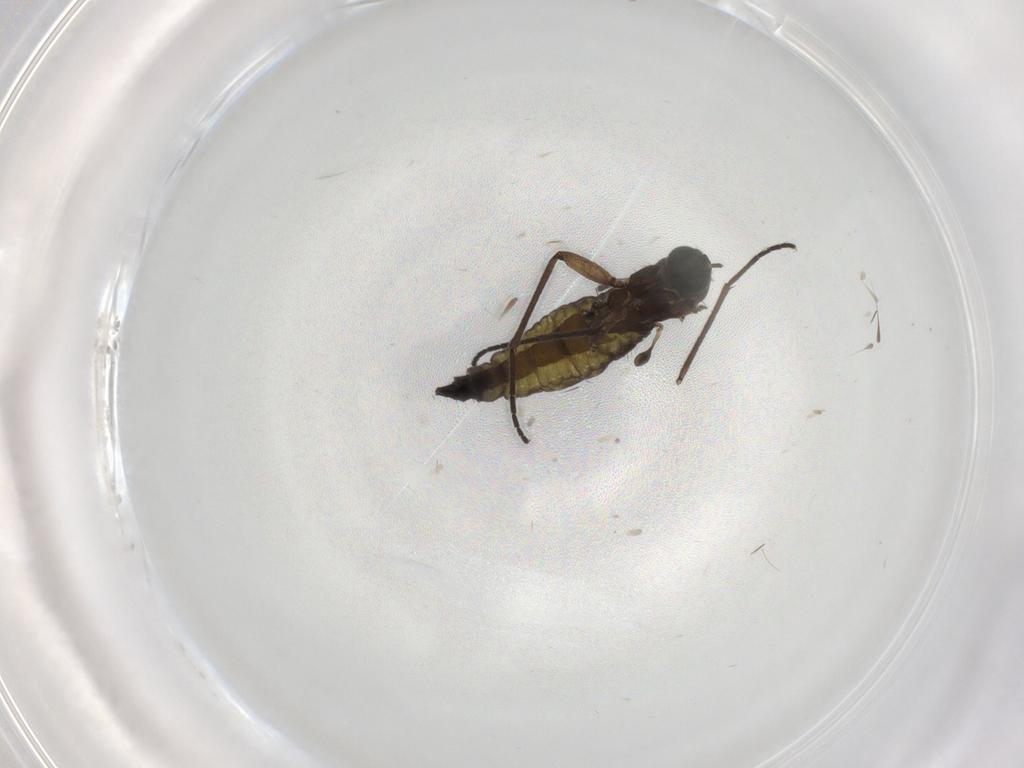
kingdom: Animalia
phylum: Arthropoda
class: Insecta
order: Diptera
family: Sciaridae
